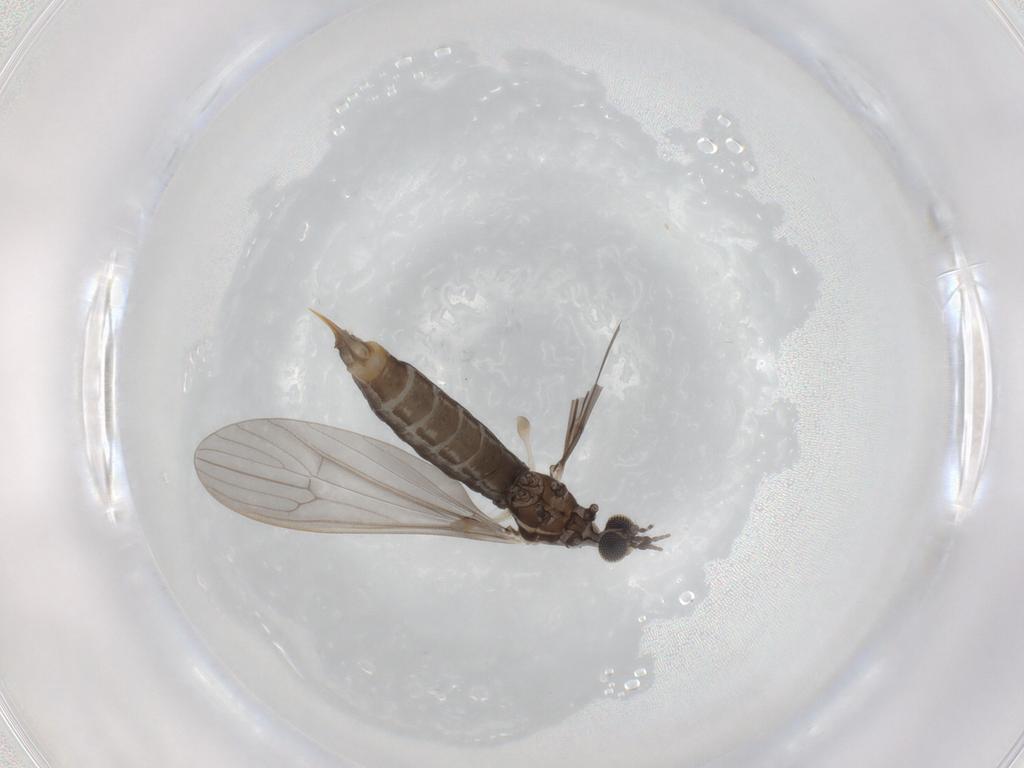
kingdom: Animalia
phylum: Arthropoda
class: Insecta
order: Diptera
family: Limoniidae
